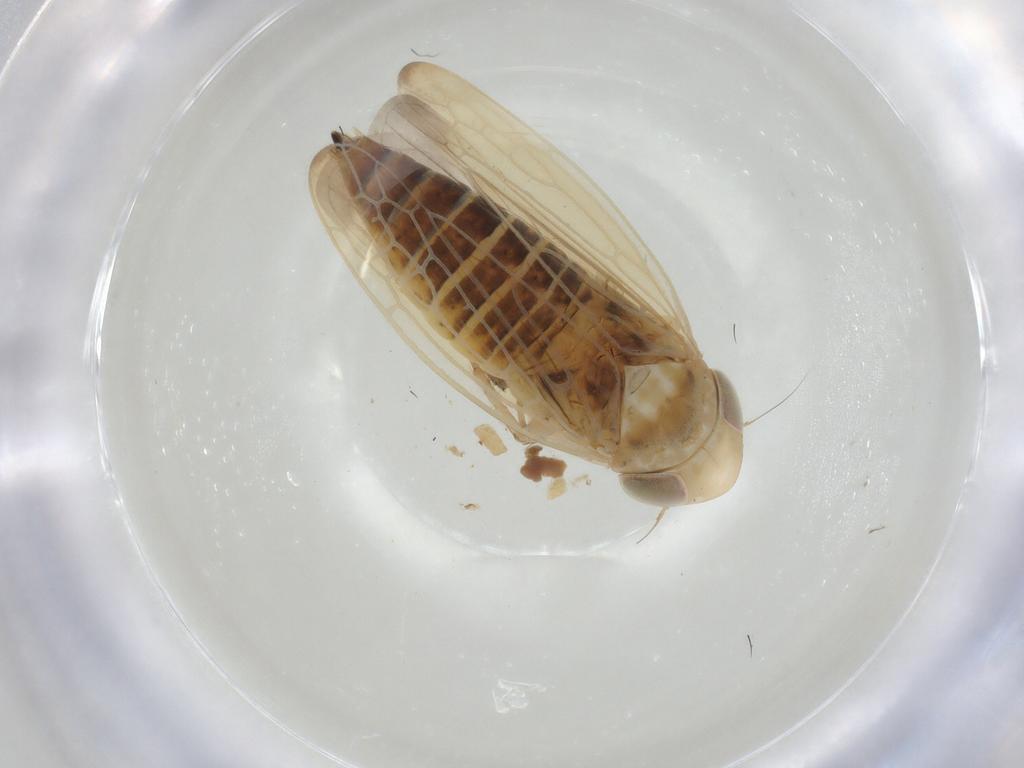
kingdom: Animalia
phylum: Arthropoda
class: Insecta
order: Hemiptera
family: Cicadellidae
